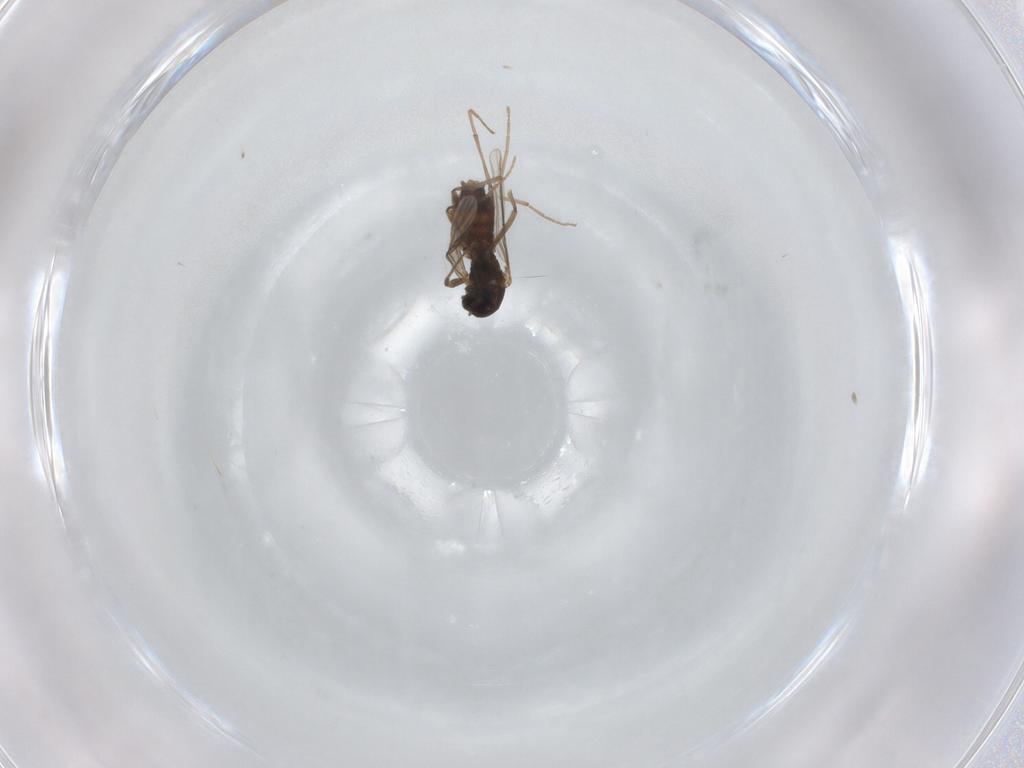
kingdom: Animalia
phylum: Arthropoda
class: Insecta
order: Diptera
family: Chironomidae
